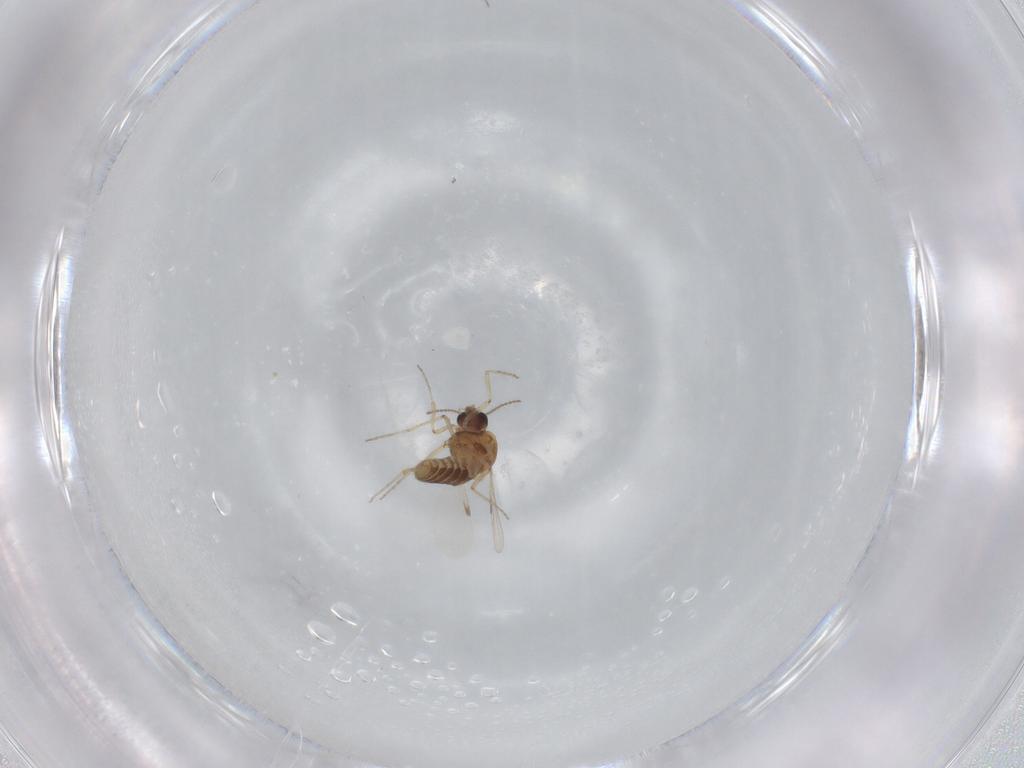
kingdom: Animalia
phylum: Arthropoda
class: Insecta
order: Diptera
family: Ceratopogonidae
